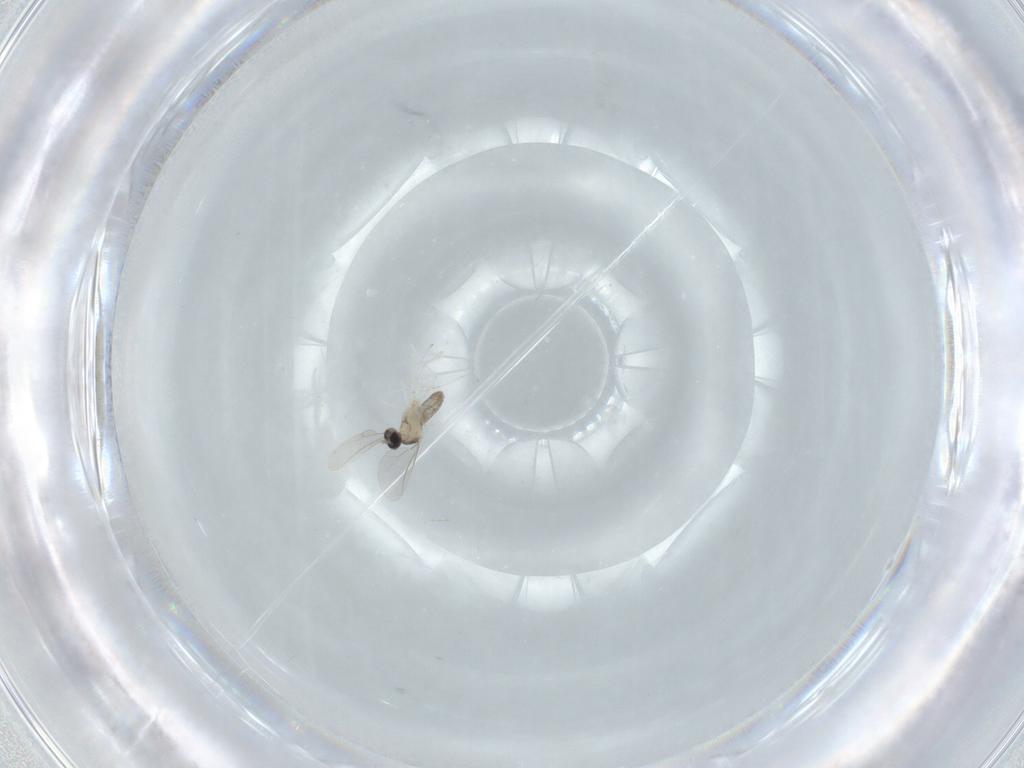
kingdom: Animalia
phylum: Arthropoda
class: Insecta
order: Diptera
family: Cecidomyiidae
